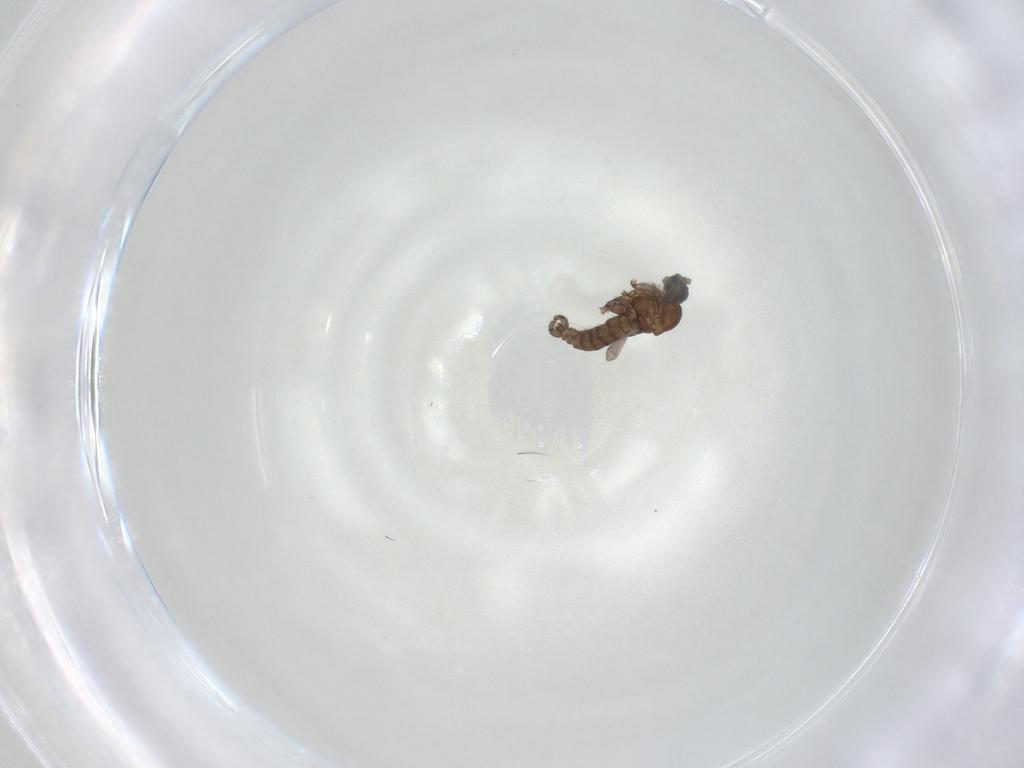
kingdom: Animalia
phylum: Arthropoda
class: Insecta
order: Diptera
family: Sciaridae
